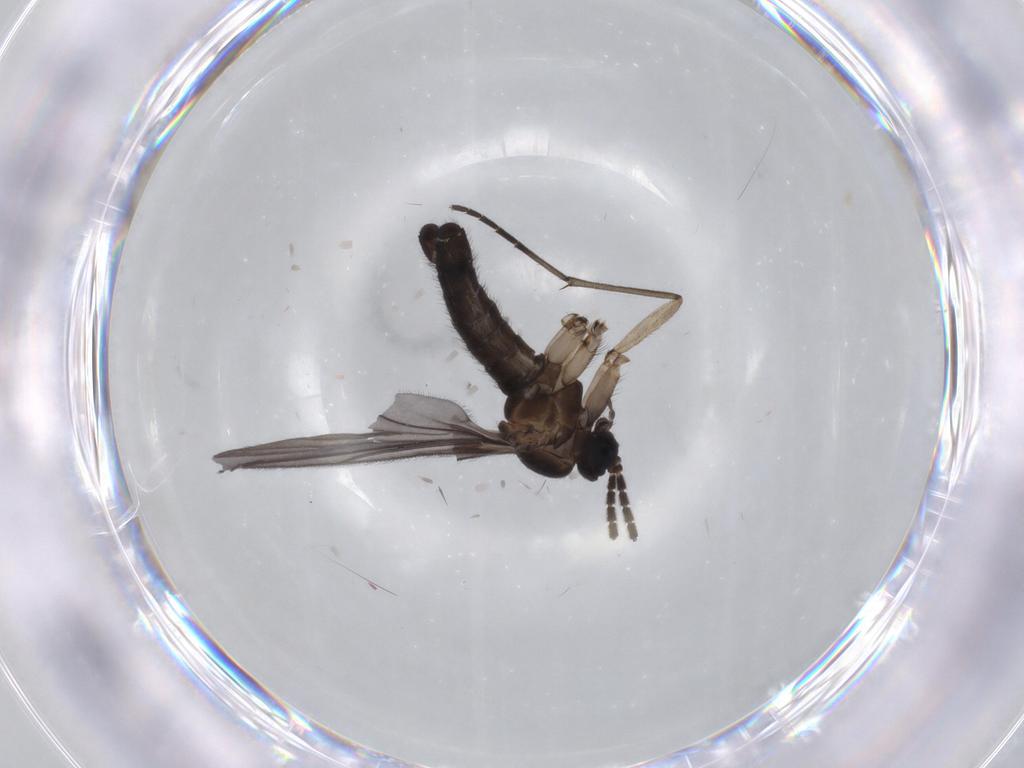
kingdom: Animalia
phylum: Arthropoda
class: Insecta
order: Diptera
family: Sciaridae
